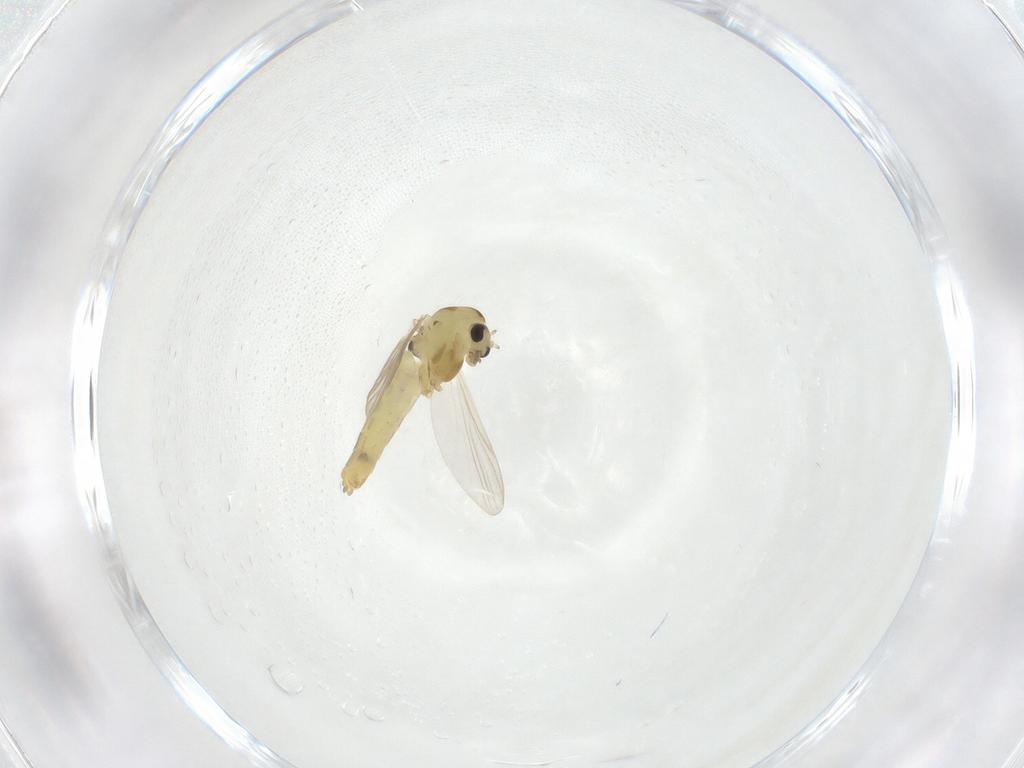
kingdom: Animalia
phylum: Arthropoda
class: Insecta
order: Diptera
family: Chironomidae
